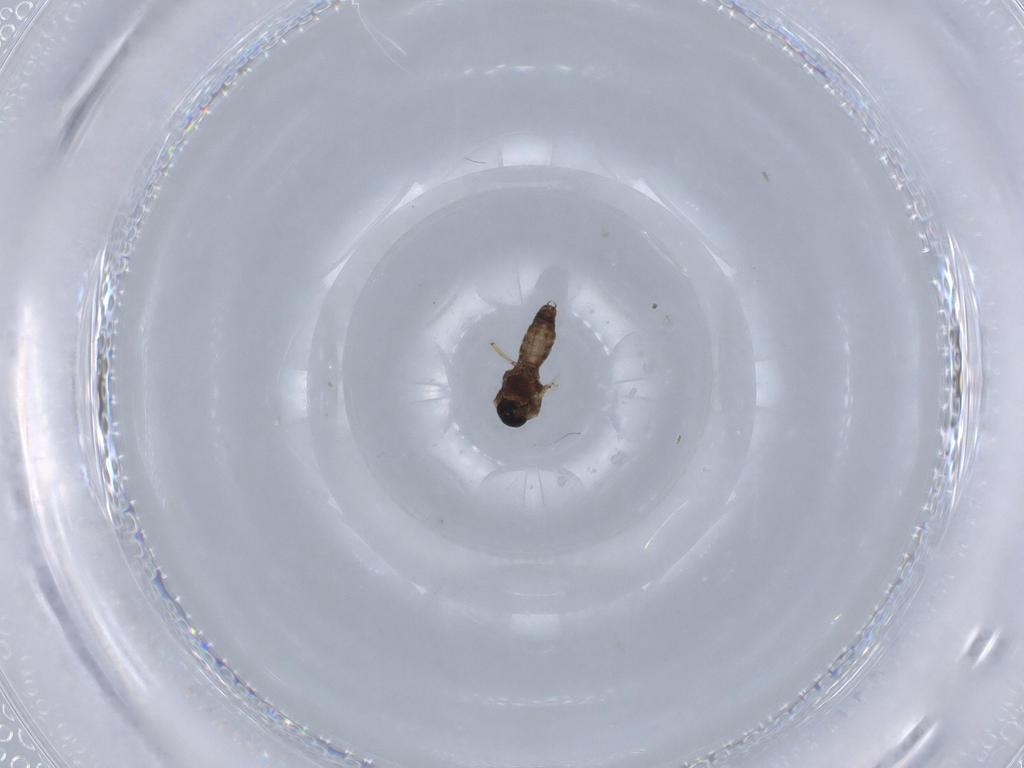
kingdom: Animalia
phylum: Arthropoda
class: Insecta
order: Diptera
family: Ceratopogonidae
